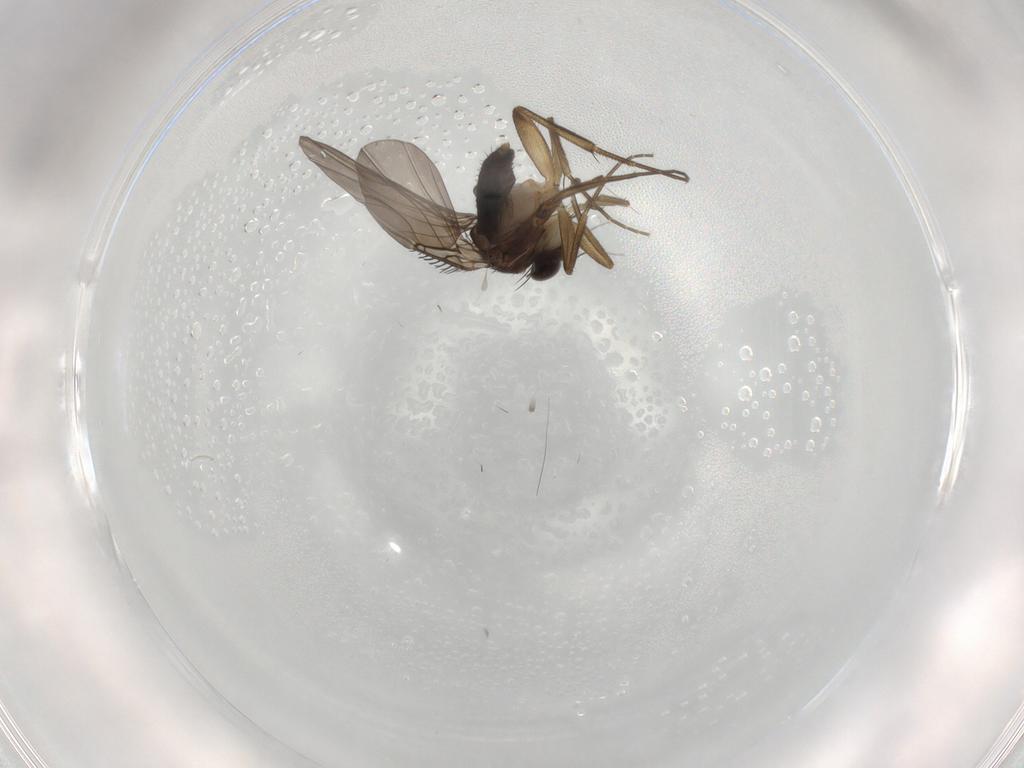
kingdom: Animalia
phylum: Arthropoda
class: Insecta
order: Diptera
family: Phoridae
